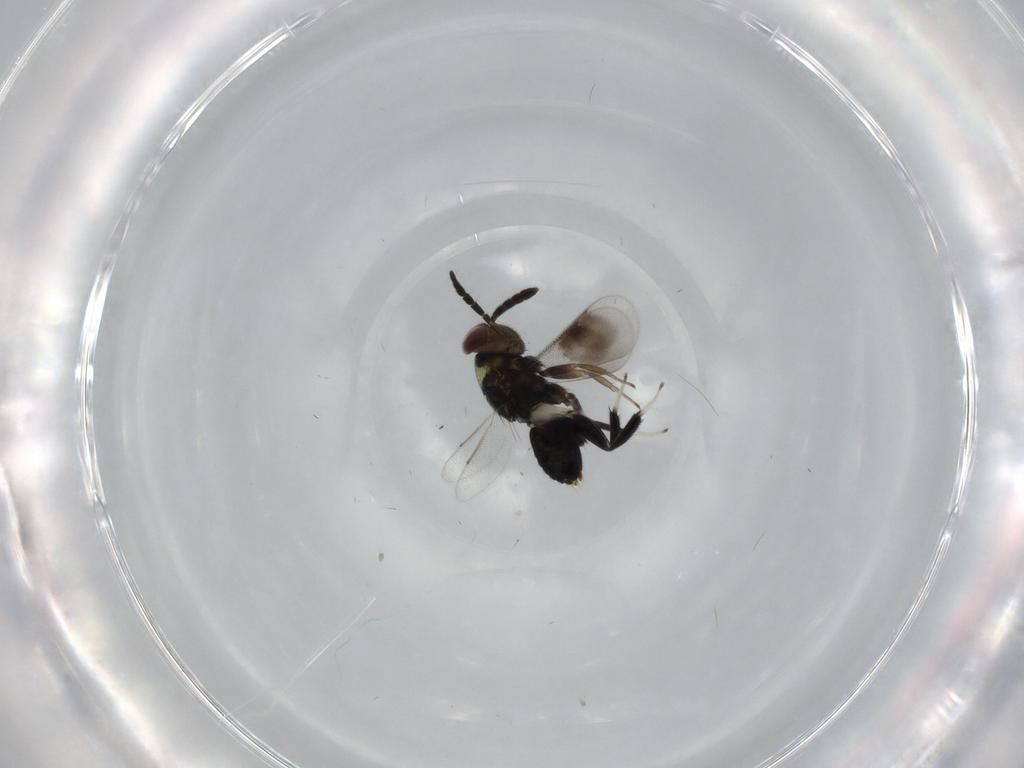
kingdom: Animalia
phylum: Arthropoda
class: Insecta
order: Hymenoptera
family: Aphelinidae
